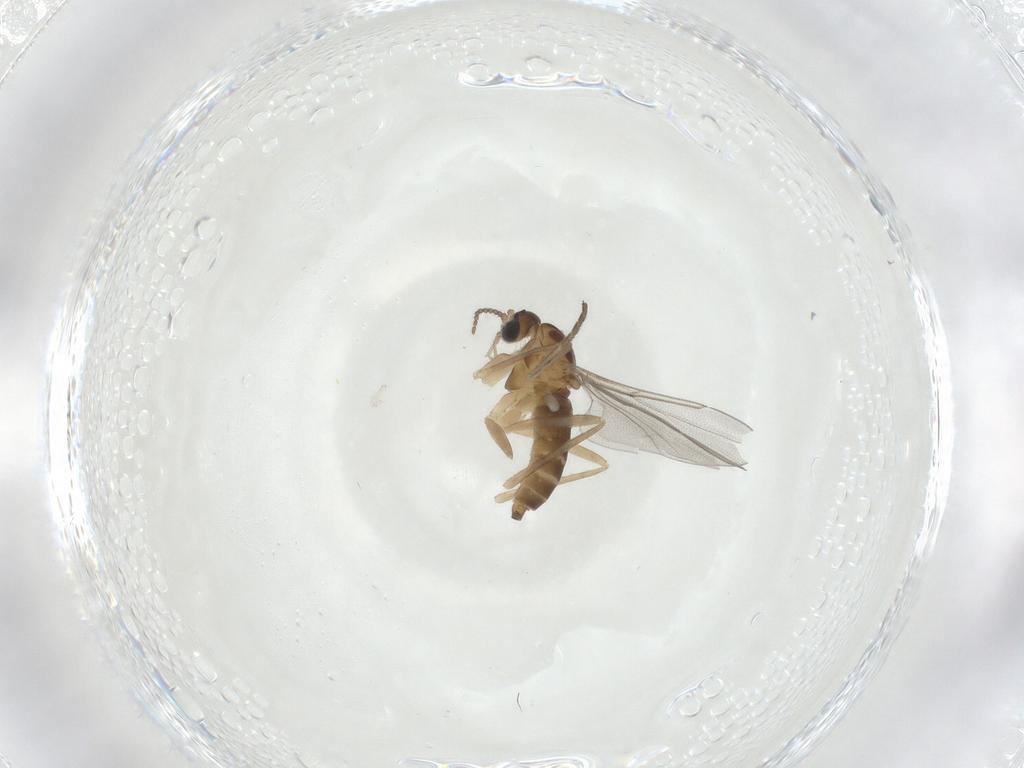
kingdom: Animalia
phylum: Arthropoda
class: Insecta
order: Diptera
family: Cecidomyiidae
